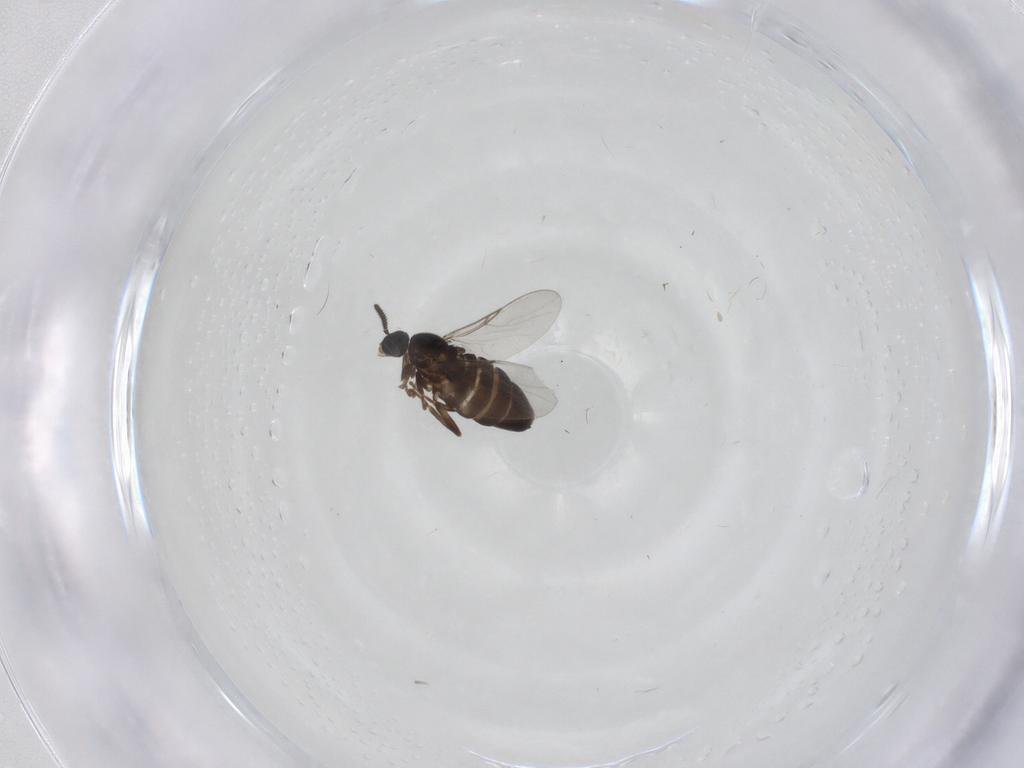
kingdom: Animalia
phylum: Arthropoda
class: Insecta
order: Diptera
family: Scatopsidae
